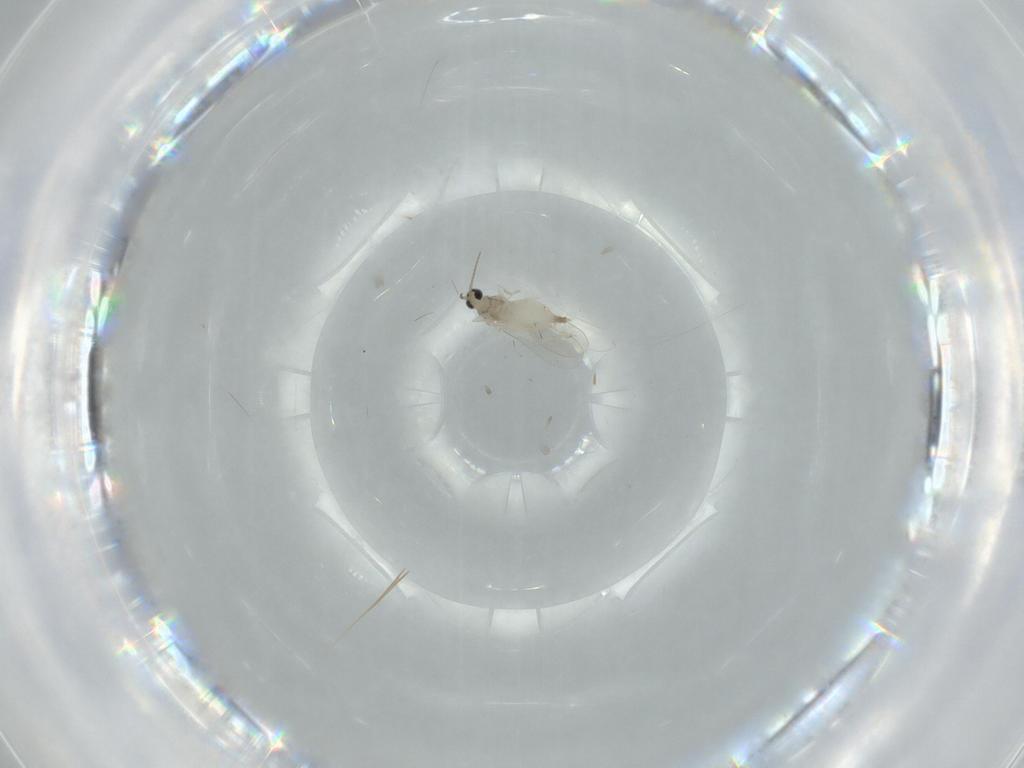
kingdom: Animalia
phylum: Arthropoda
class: Insecta
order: Diptera
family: Cecidomyiidae
